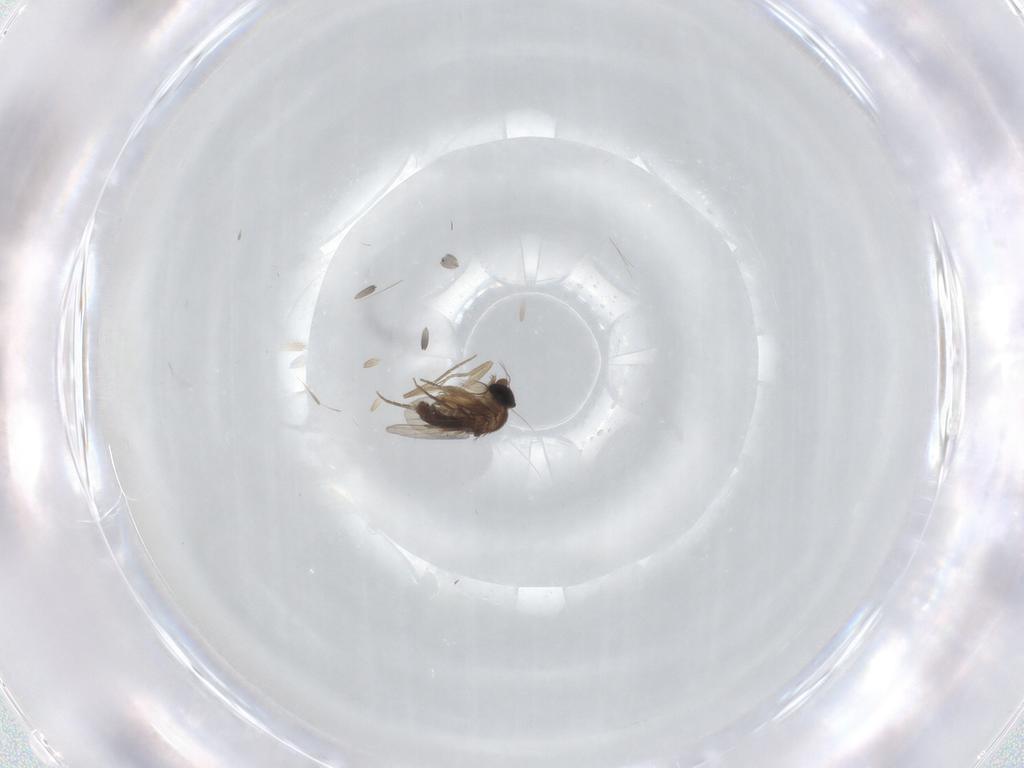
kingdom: Animalia
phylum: Arthropoda
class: Insecta
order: Diptera
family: Phoridae
